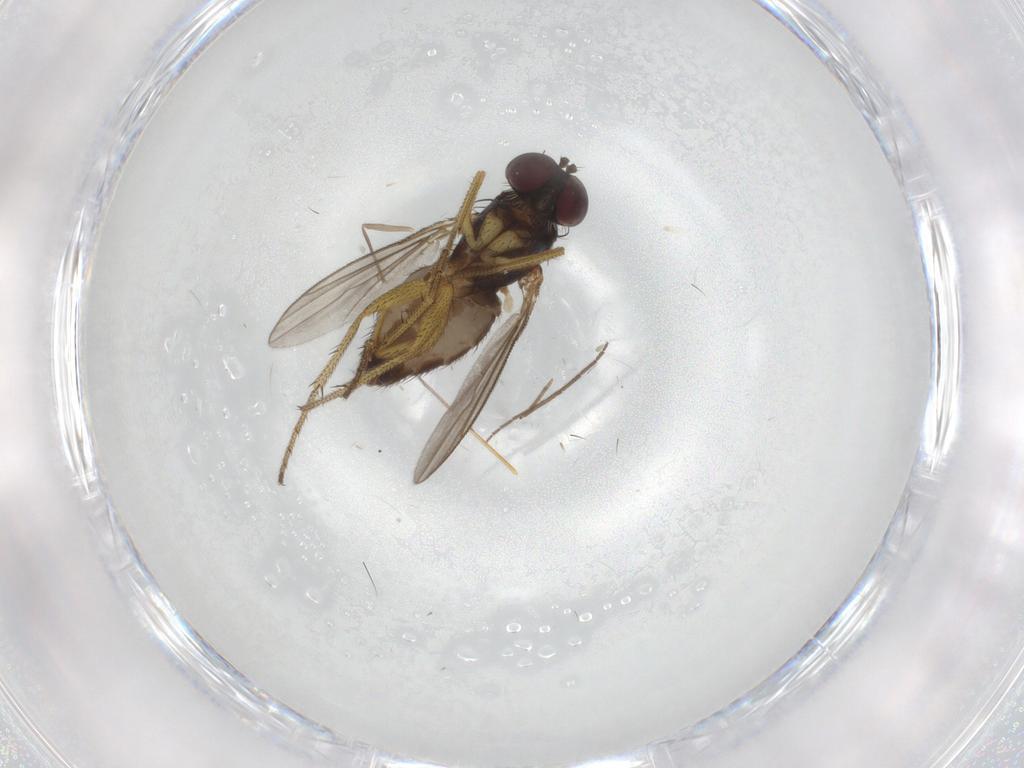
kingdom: Animalia
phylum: Arthropoda
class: Insecta
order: Diptera
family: Chironomidae
